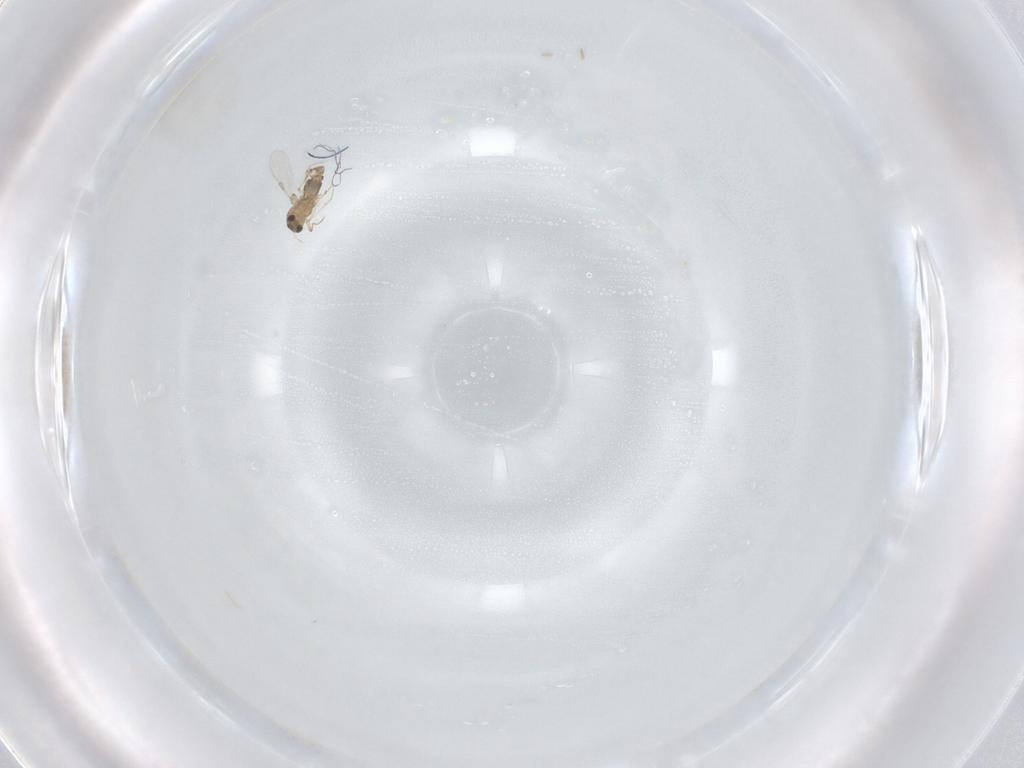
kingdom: Animalia
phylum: Arthropoda
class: Insecta
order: Diptera
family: Chironomidae
